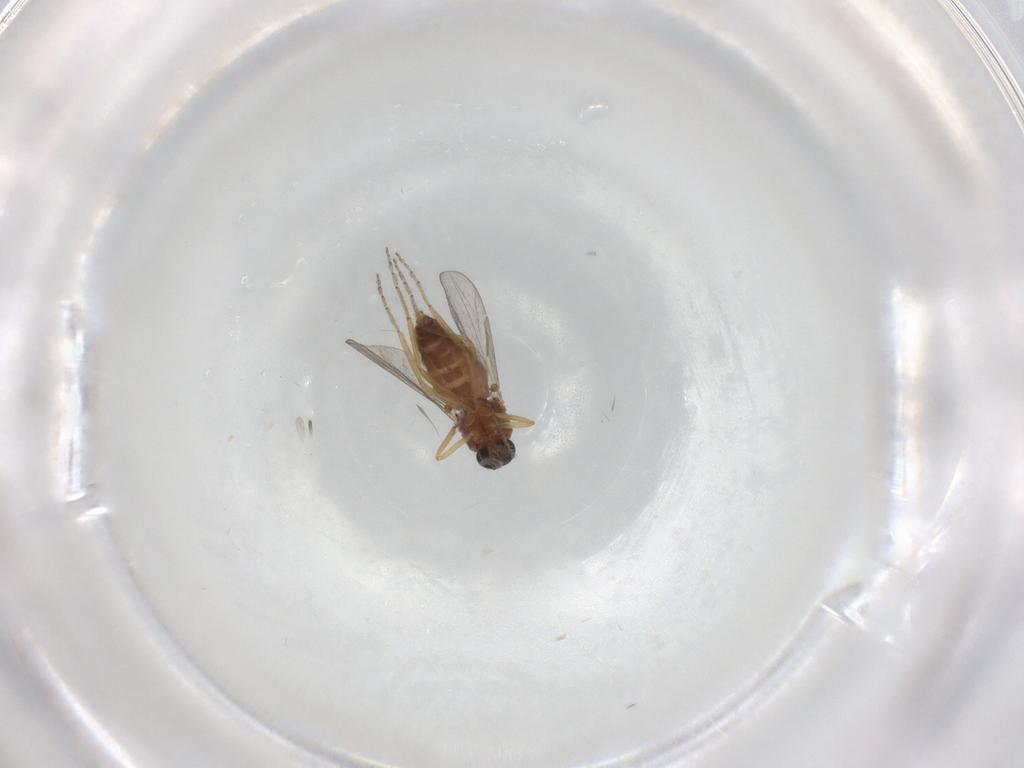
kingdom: Animalia
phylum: Arthropoda
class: Insecta
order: Diptera
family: Ceratopogonidae
